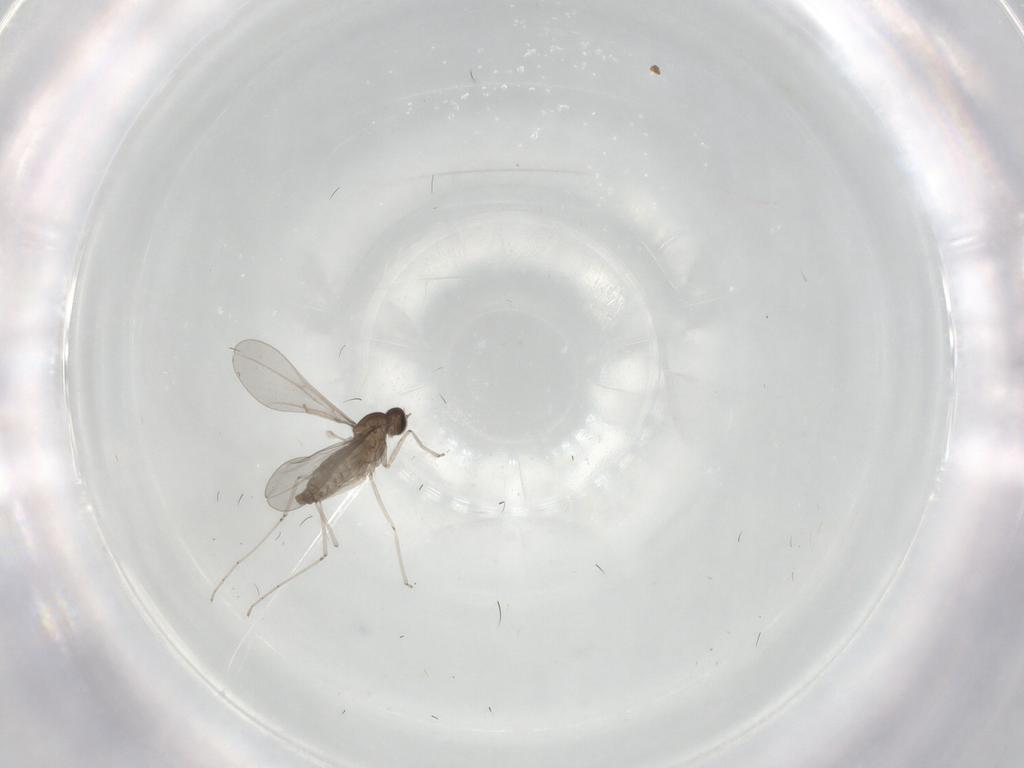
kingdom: Animalia
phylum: Arthropoda
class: Insecta
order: Diptera
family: Cecidomyiidae
